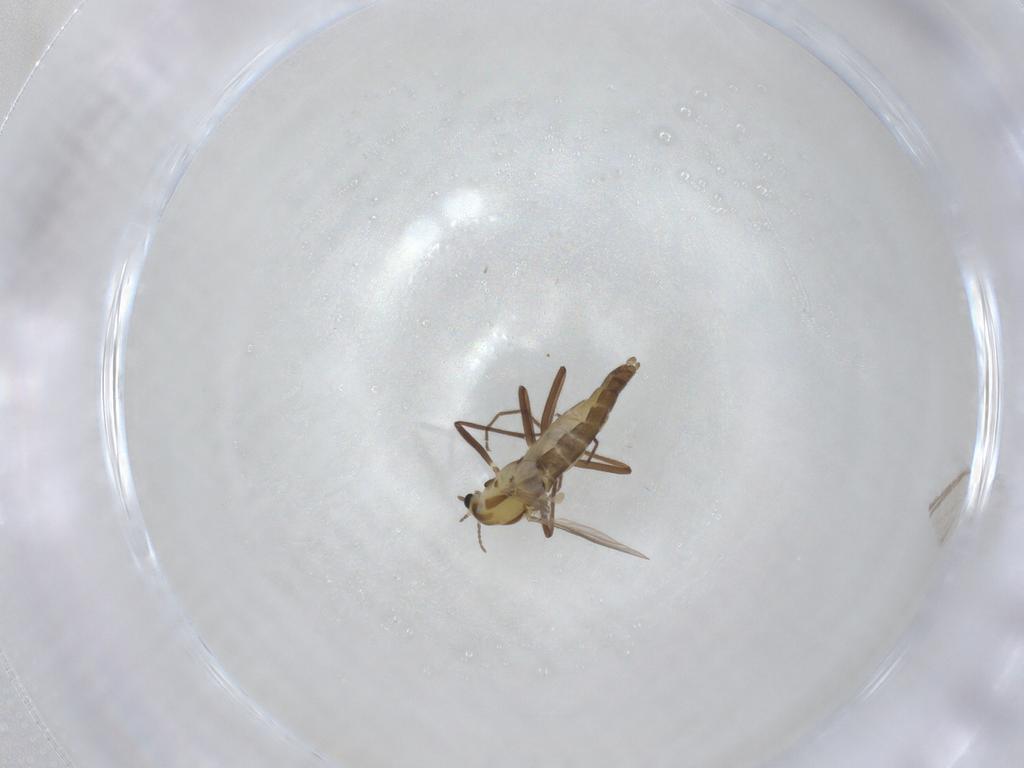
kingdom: Animalia
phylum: Arthropoda
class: Insecta
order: Diptera
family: Chironomidae
